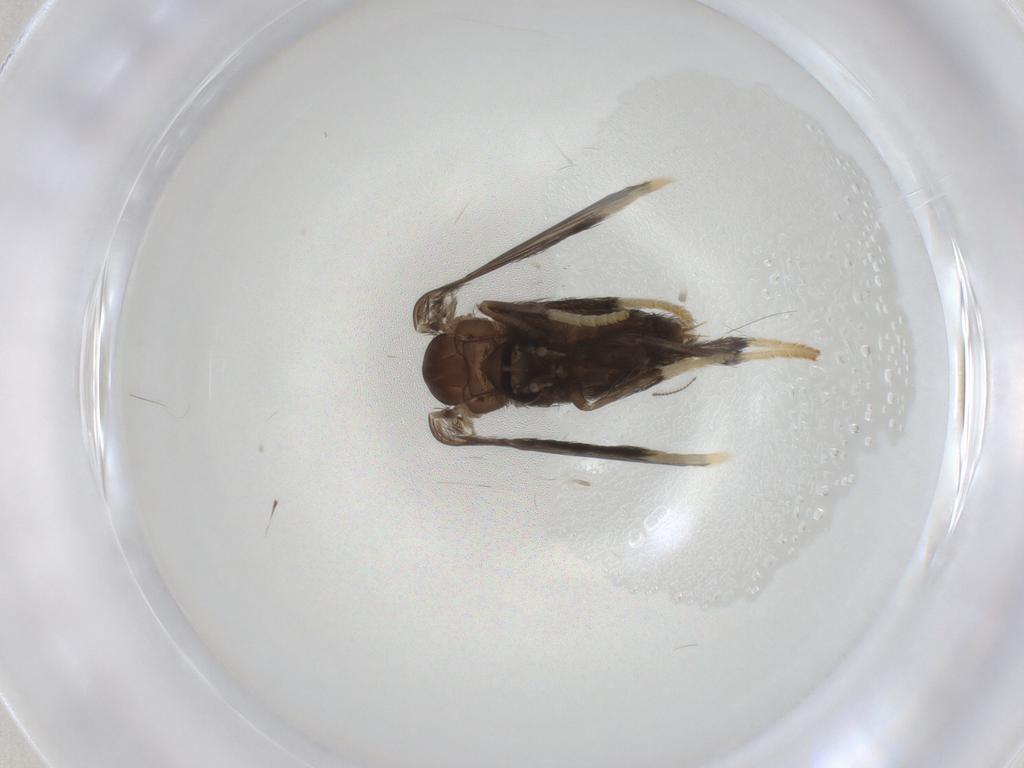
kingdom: Animalia
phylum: Arthropoda
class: Insecta
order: Diptera
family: Psychodidae
